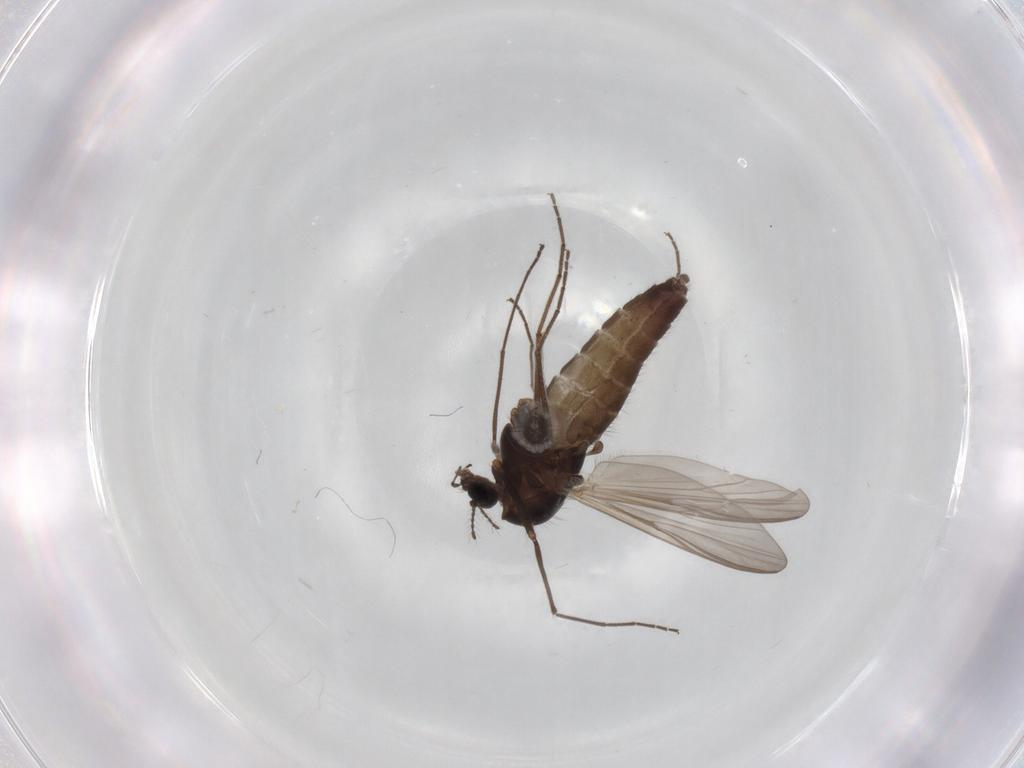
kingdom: Animalia
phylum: Arthropoda
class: Insecta
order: Diptera
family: Chironomidae
